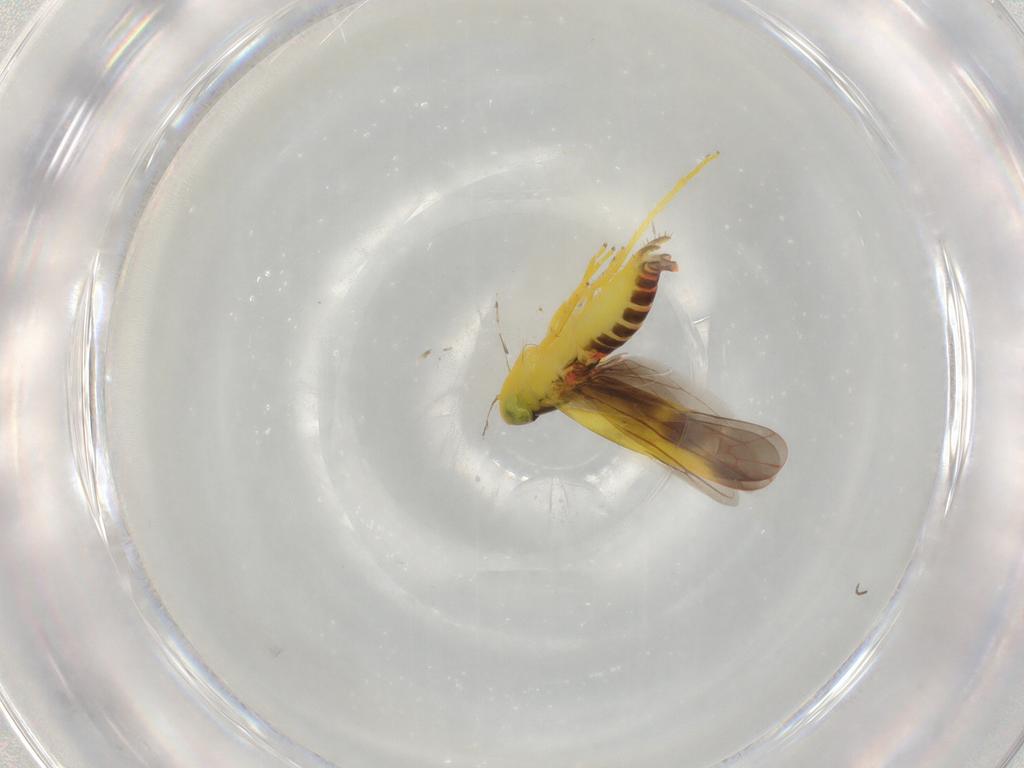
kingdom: Animalia
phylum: Arthropoda
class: Insecta
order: Hemiptera
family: Cicadellidae
